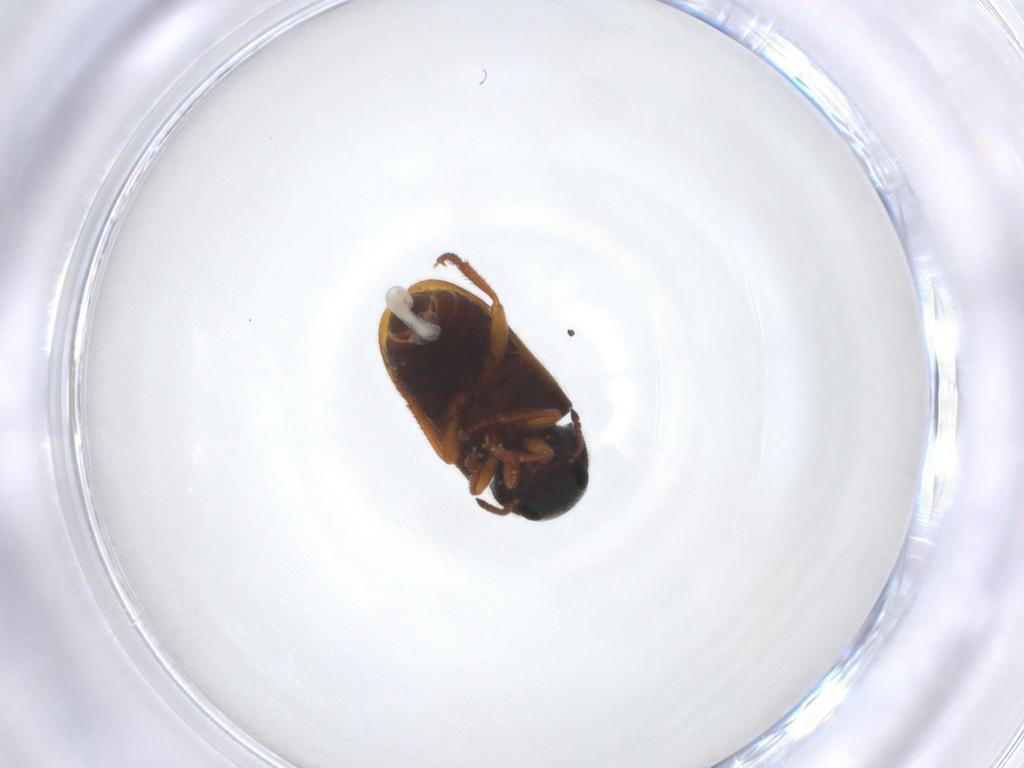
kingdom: Animalia
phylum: Arthropoda
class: Insecta
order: Coleoptera
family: Melyridae
